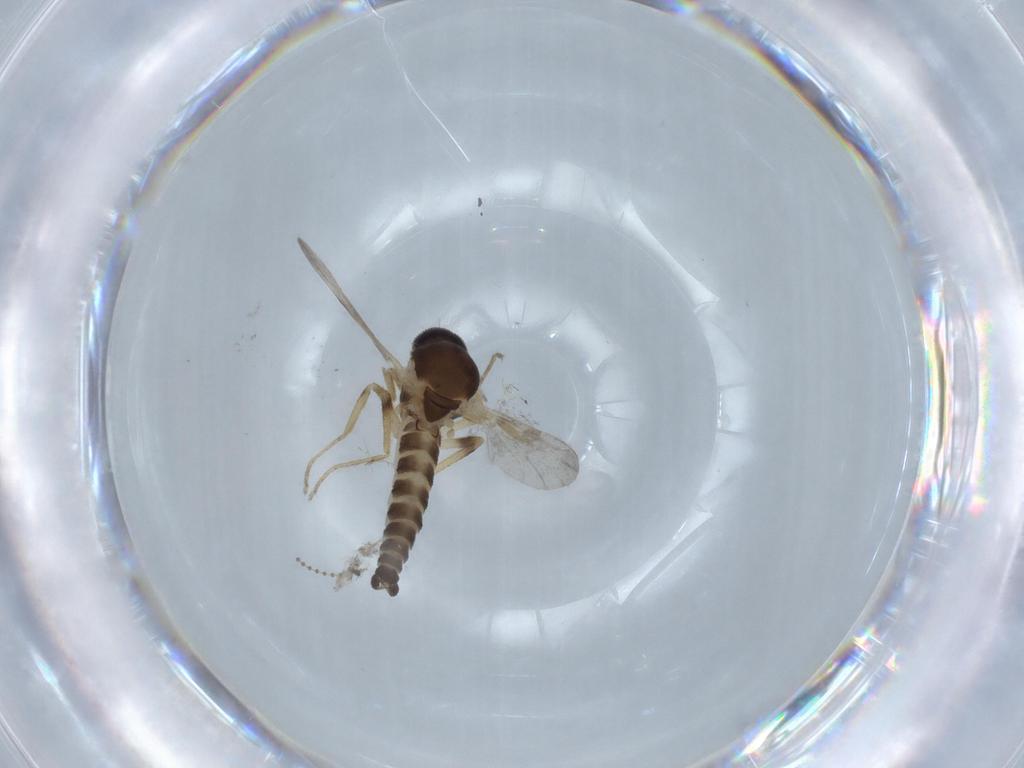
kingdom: Animalia
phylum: Arthropoda
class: Insecta
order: Diptera
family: Ceratopogonidae
